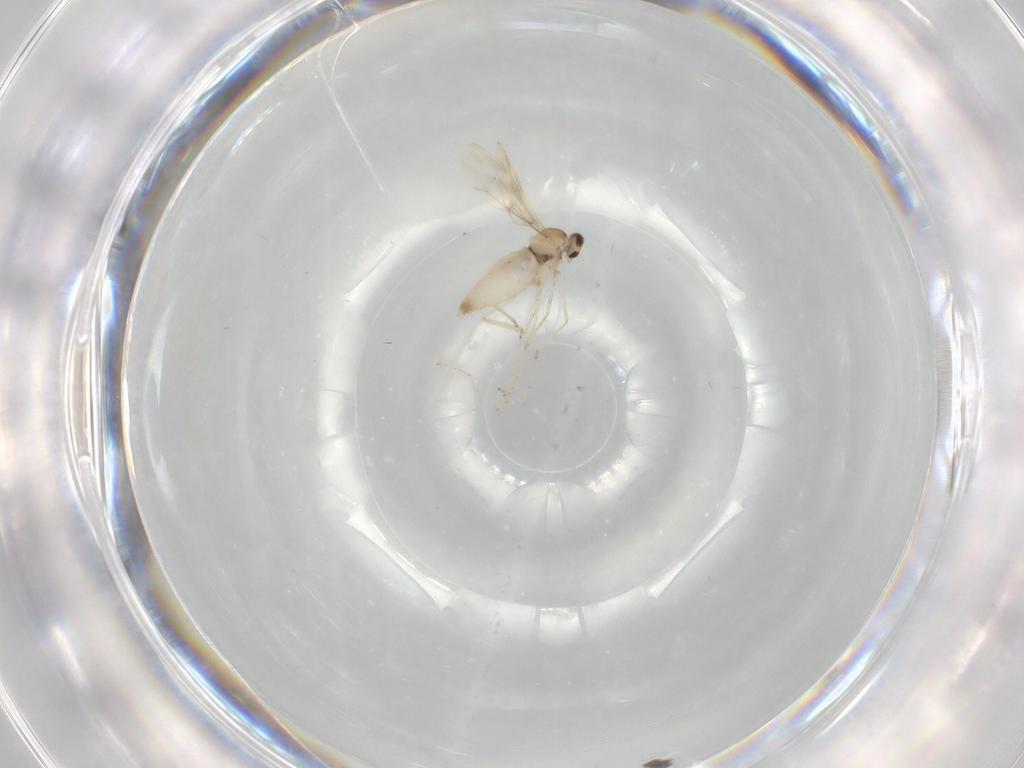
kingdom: Animalia
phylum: Arthropoda
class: Insecta
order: Diptera
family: Cecidomyiidae
